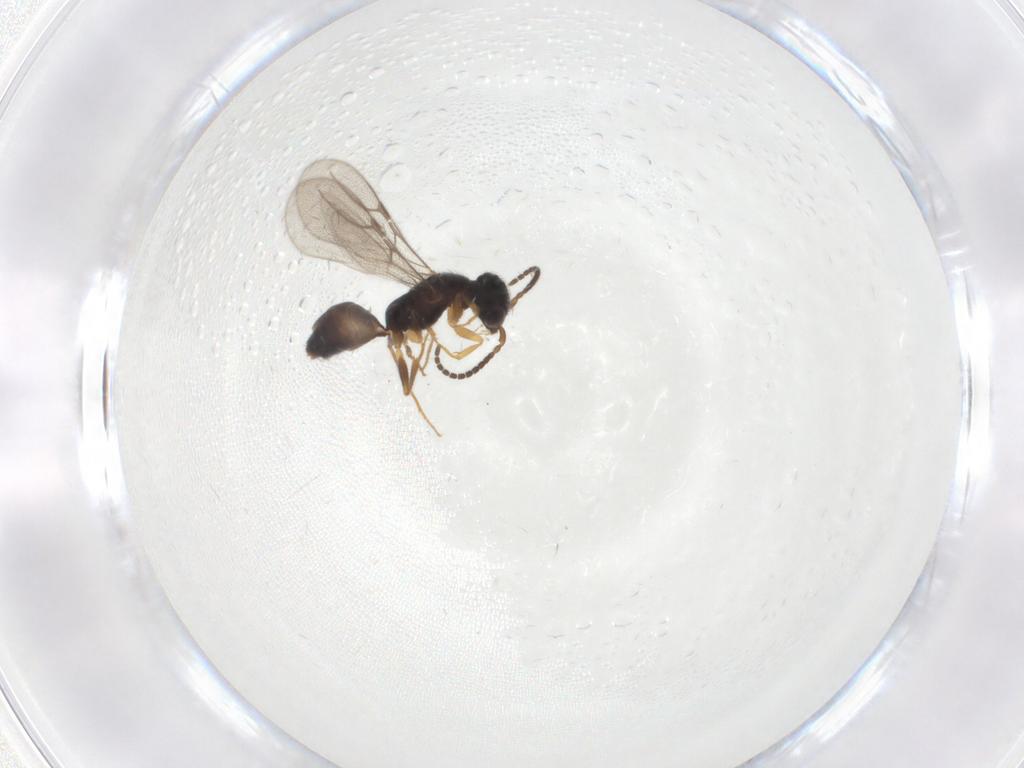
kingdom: Animalia
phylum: Arthropoda
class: Insecta
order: Hymenoptera
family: Bethylidae
